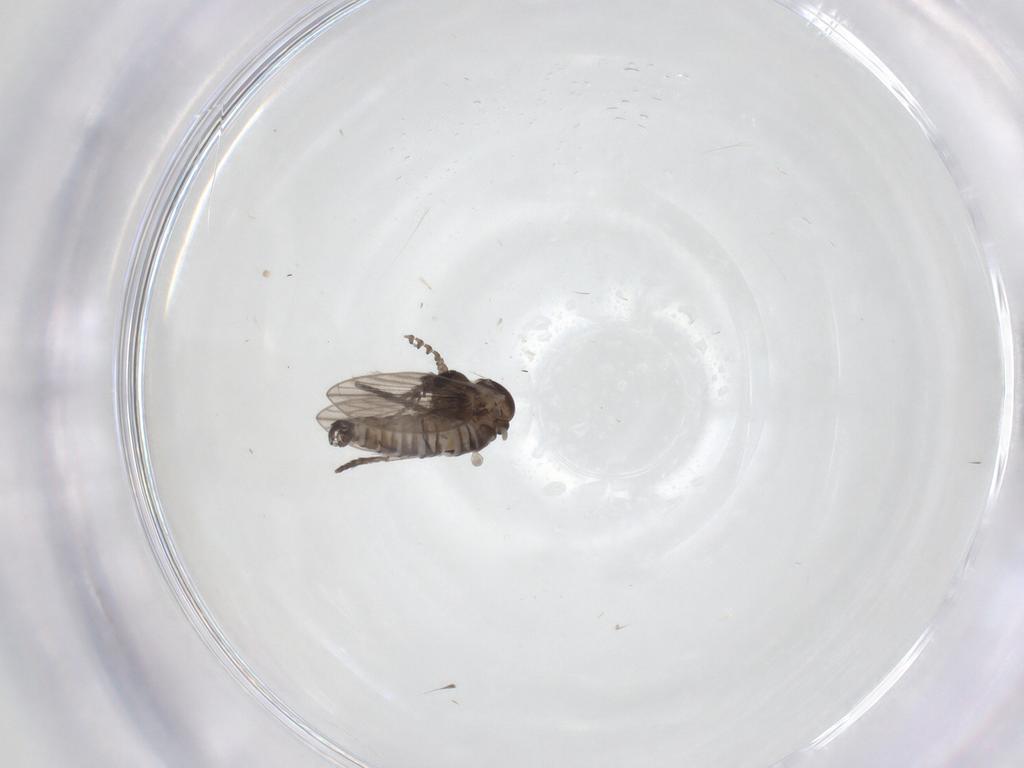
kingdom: Animalia
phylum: Arthropoda
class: Insecta
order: Diptera
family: Psychodidae
